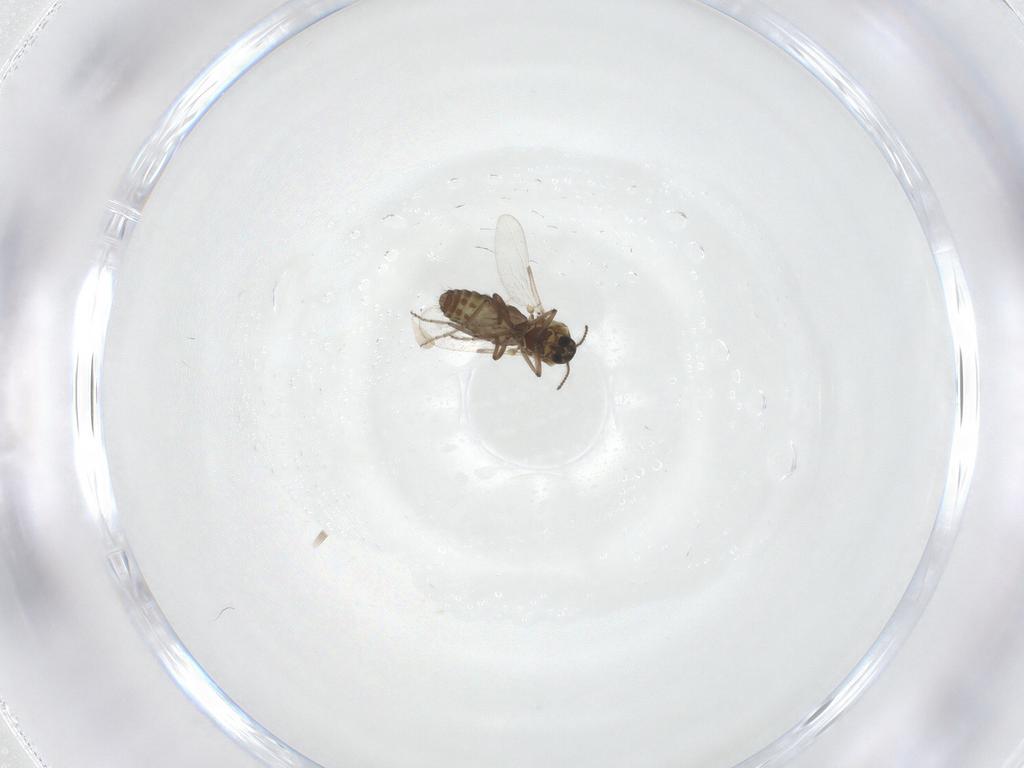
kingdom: Animalia
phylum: Arthropoda
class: Insecta
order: Diptera
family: Ceratopogonidae
